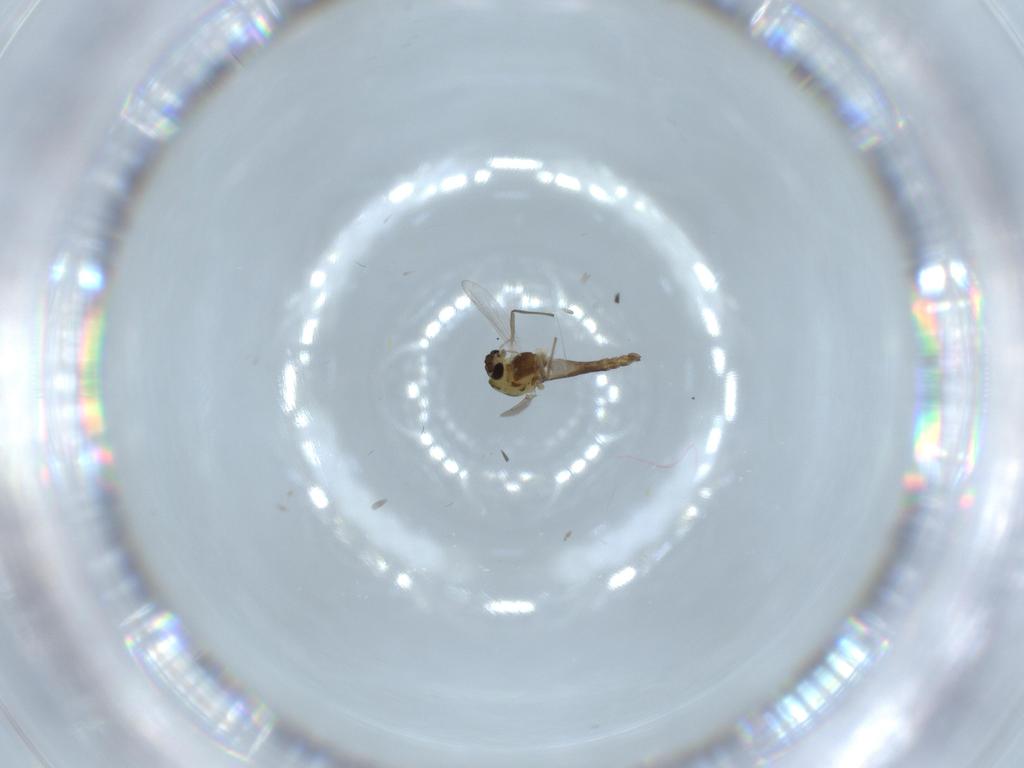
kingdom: Animalia
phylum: Arthropoda
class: Insecta
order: Diptera
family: Chironomidae
